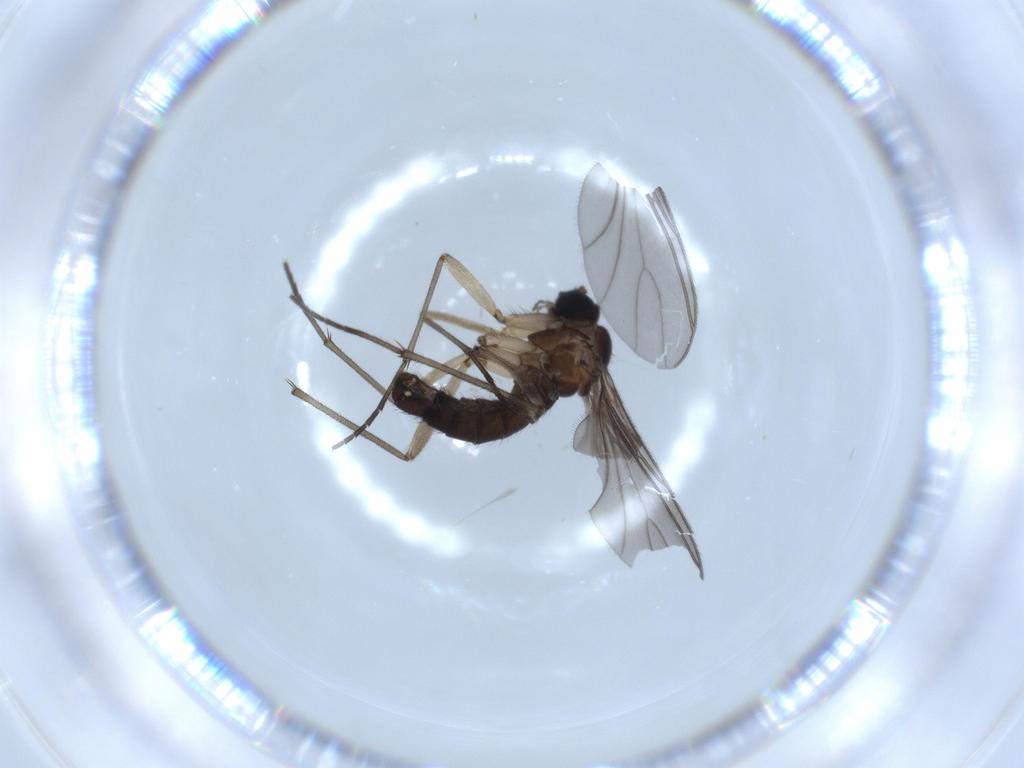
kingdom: Animalia
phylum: Arthropoda
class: Insecta
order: Diptera
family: Sciaridae
